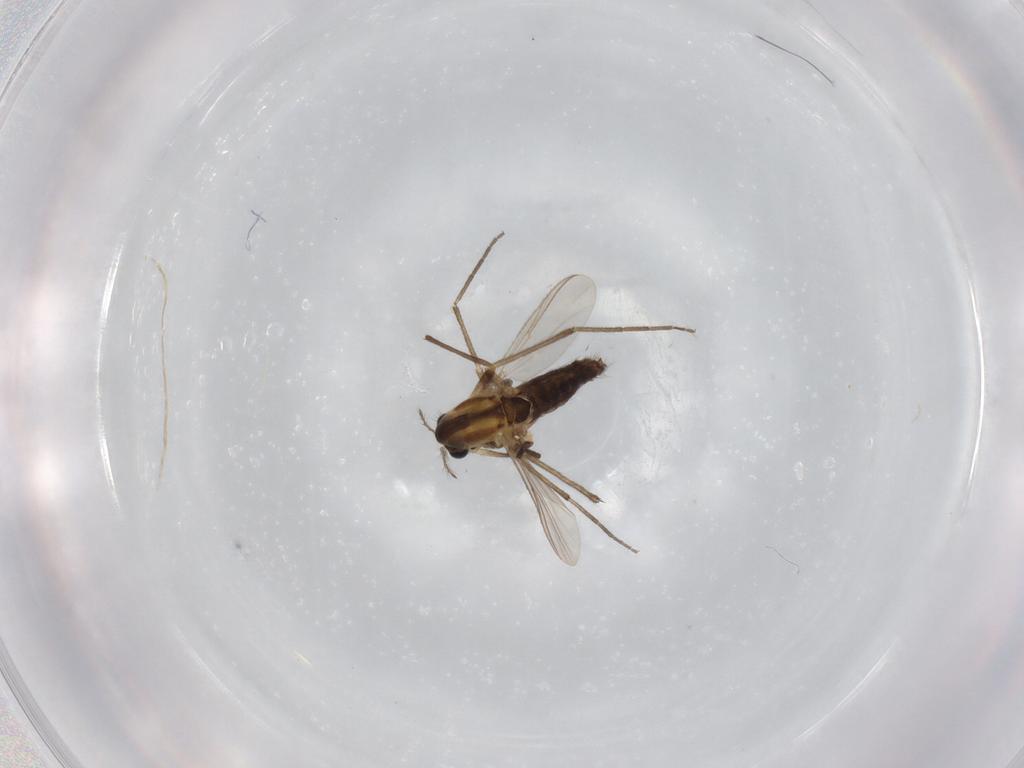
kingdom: Animalia
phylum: Arthropoda
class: Insecta
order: Diptera
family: Chironomidae
